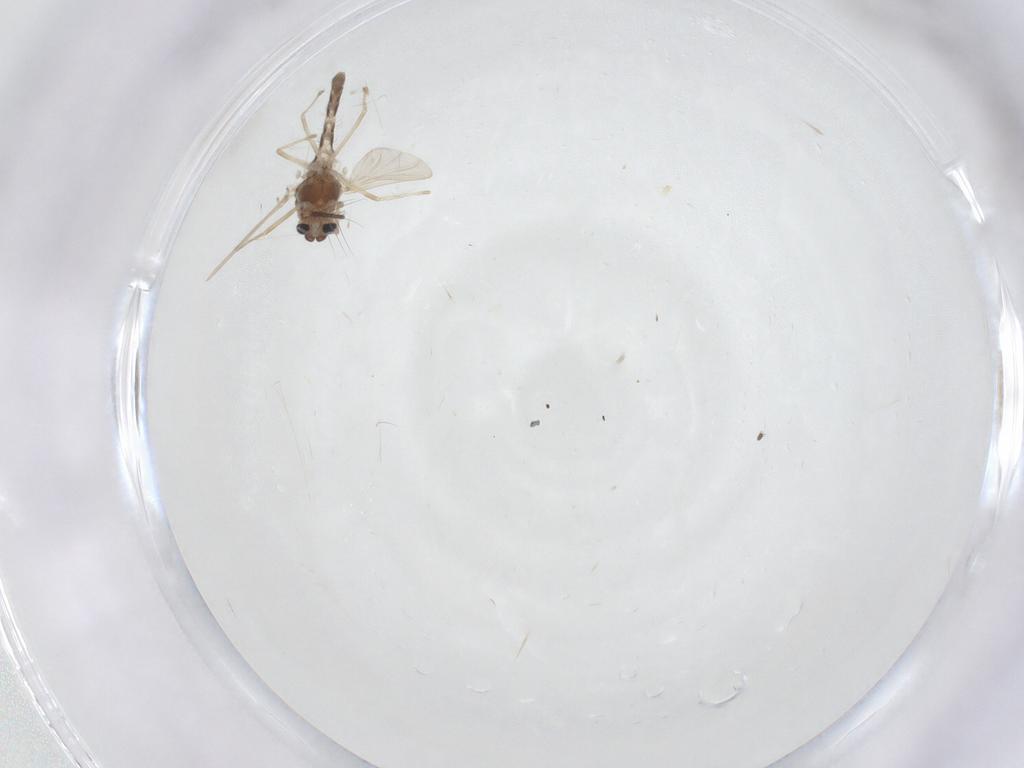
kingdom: Animalia
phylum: Arthropoda
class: Insecta
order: Diptera
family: Chironomidae
